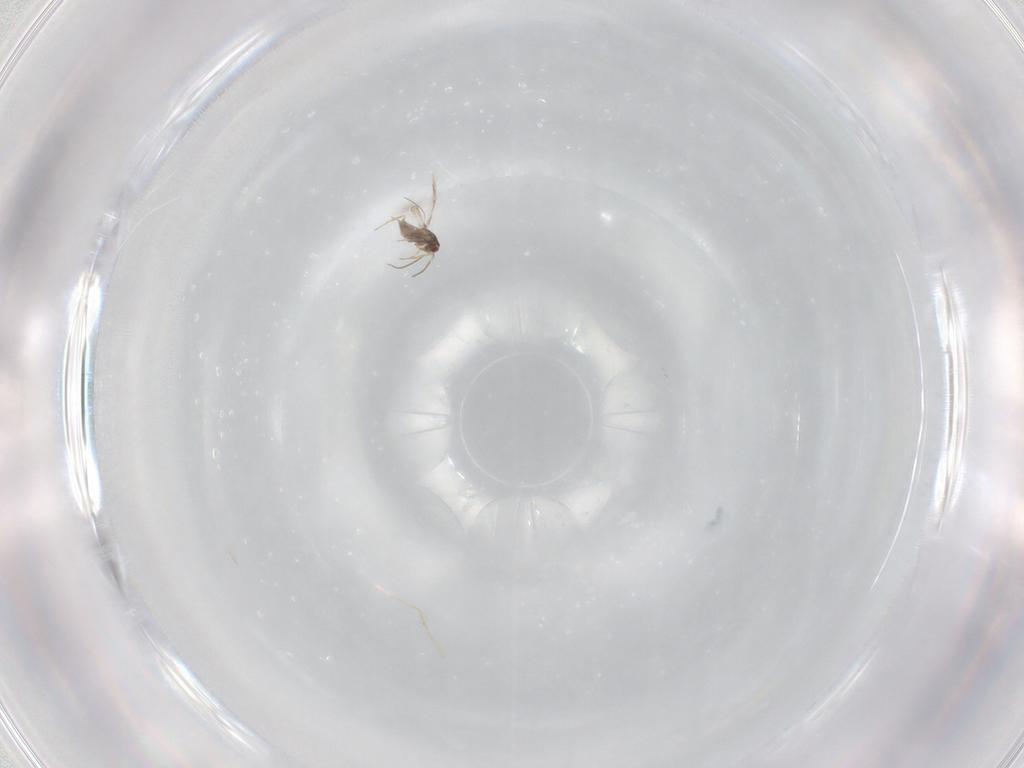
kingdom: Animalia
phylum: Arthropoda
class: Insecta
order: Hymenoptera
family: Mymaridae
